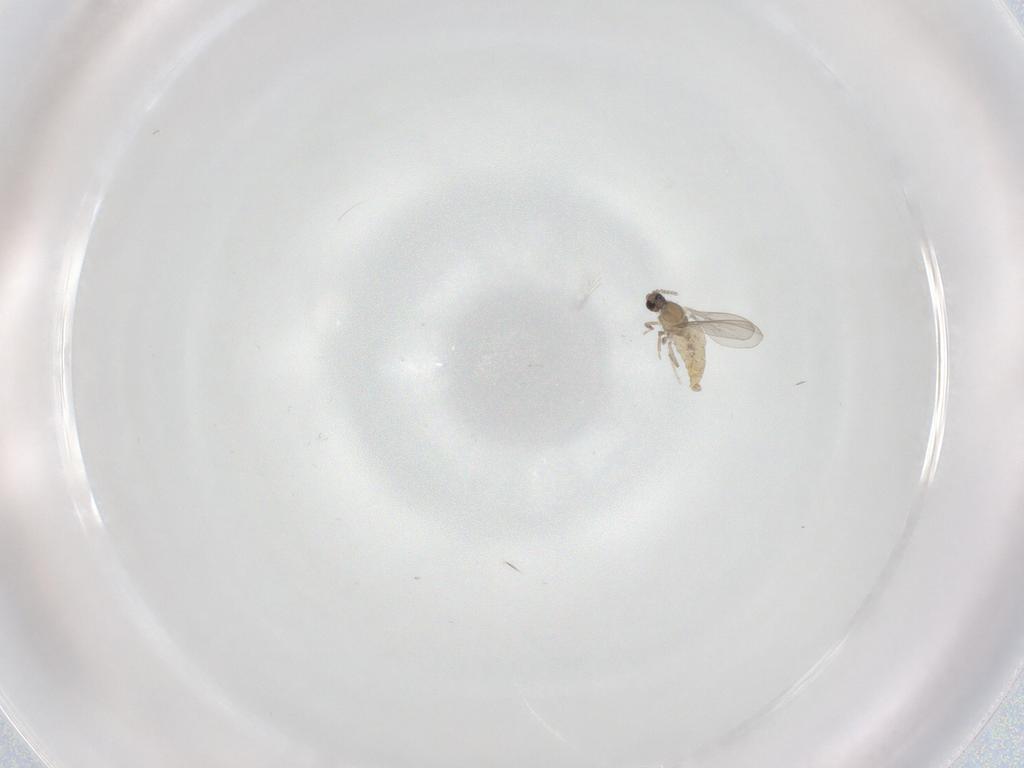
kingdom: Animalia
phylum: Arthropoda
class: Insecta
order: Diptera
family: Cecidomyiidae
